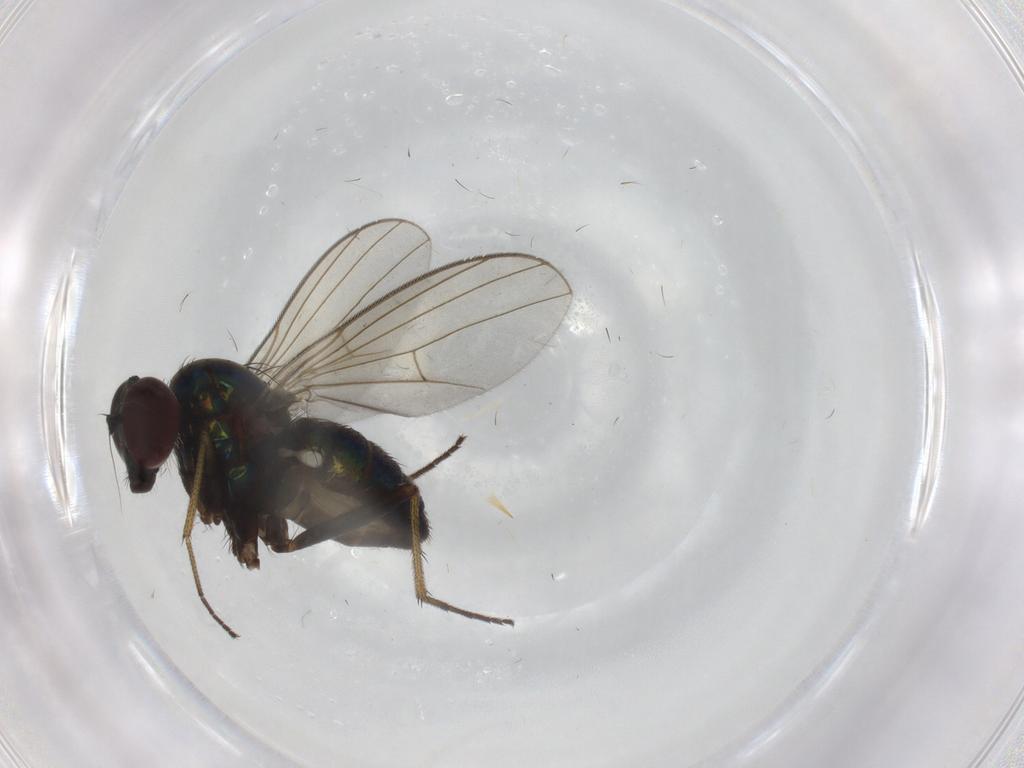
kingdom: Animalia
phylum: Arthropoda
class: Insecta
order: Diptera
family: Dolichopodidae
